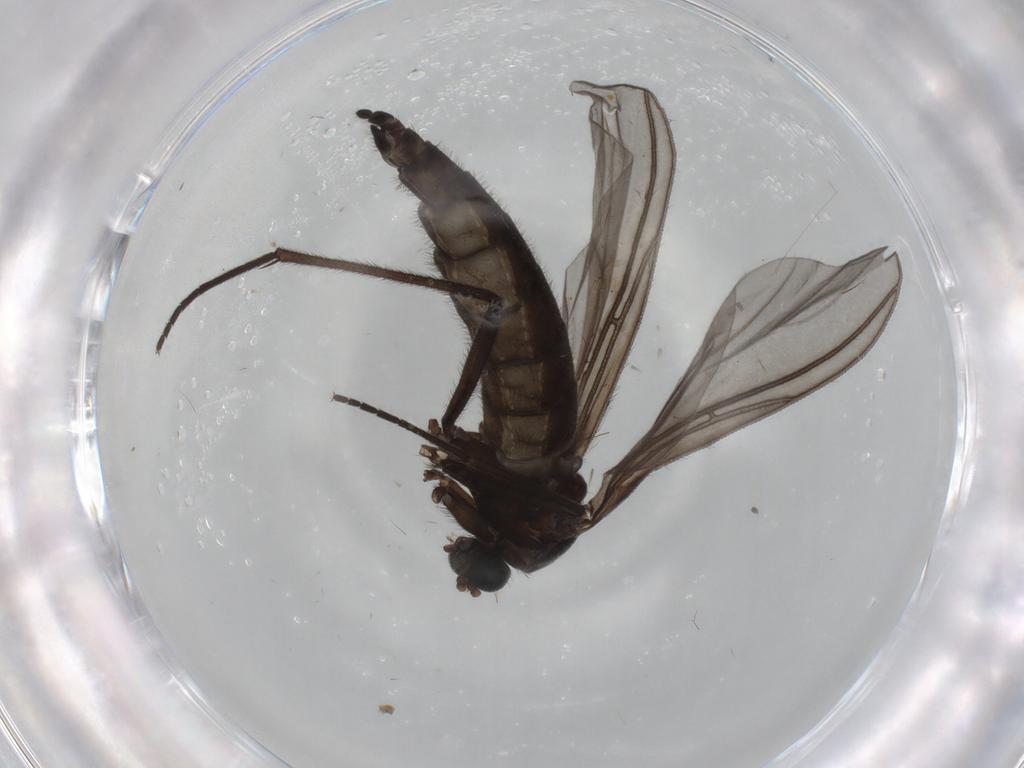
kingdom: Animalia
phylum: Arthropoda
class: Insecta
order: Diptera
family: Sciaridae
